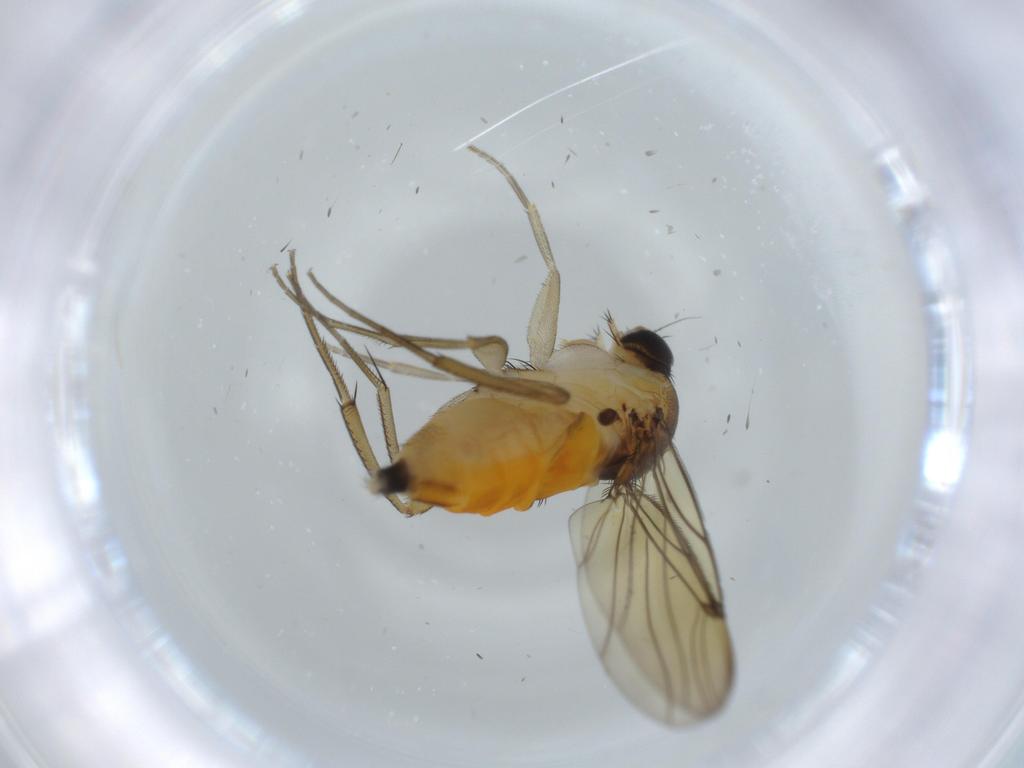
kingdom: Animalia
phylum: Arthropoda
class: Insecta
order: Diptera
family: Phoridae
